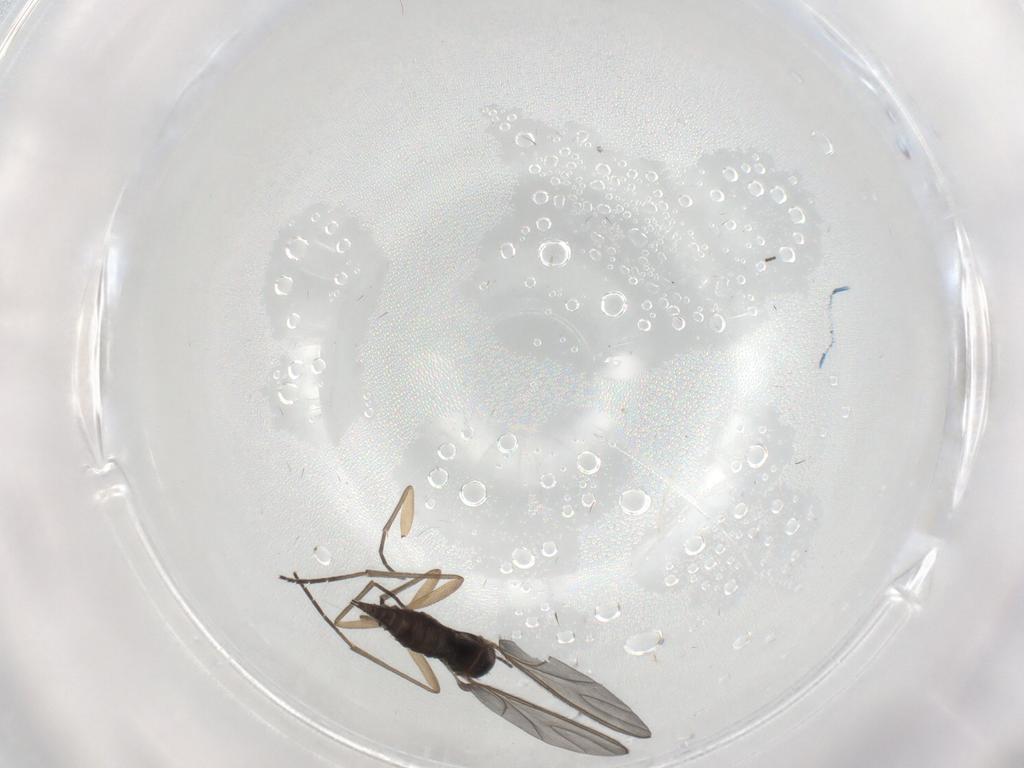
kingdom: Animalia
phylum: Arthropoda
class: Insecta
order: Diptera
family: Sciaridae
